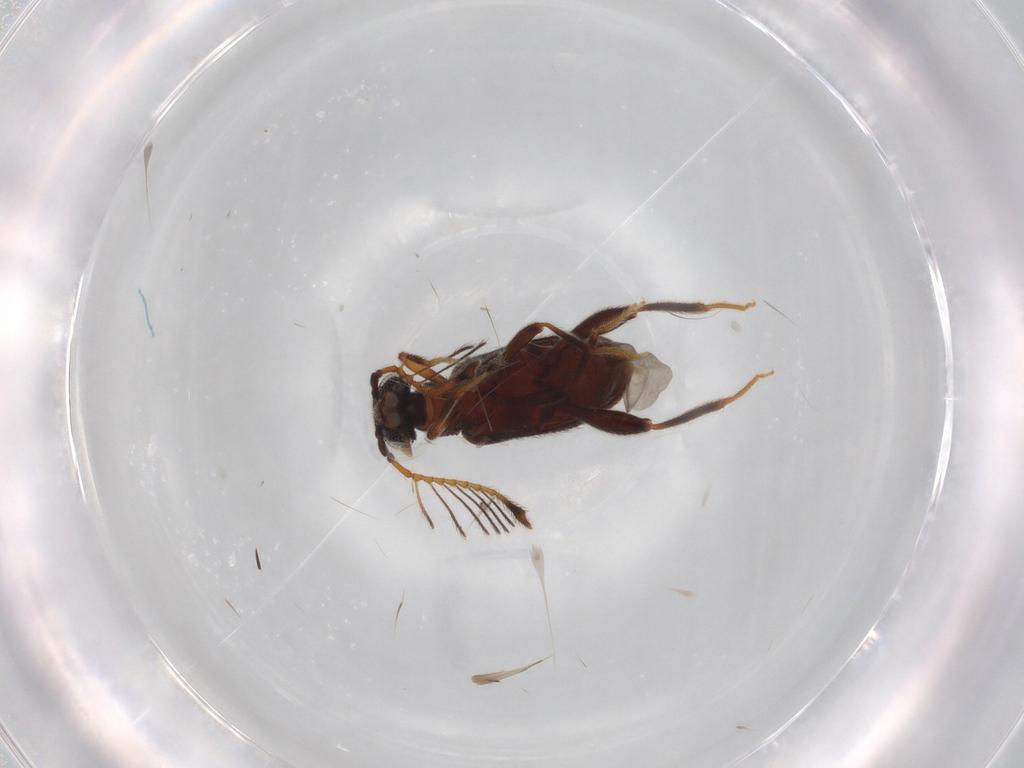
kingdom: Animalia
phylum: Arthropoda
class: Insecta
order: Coleoptera
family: Aderidae
